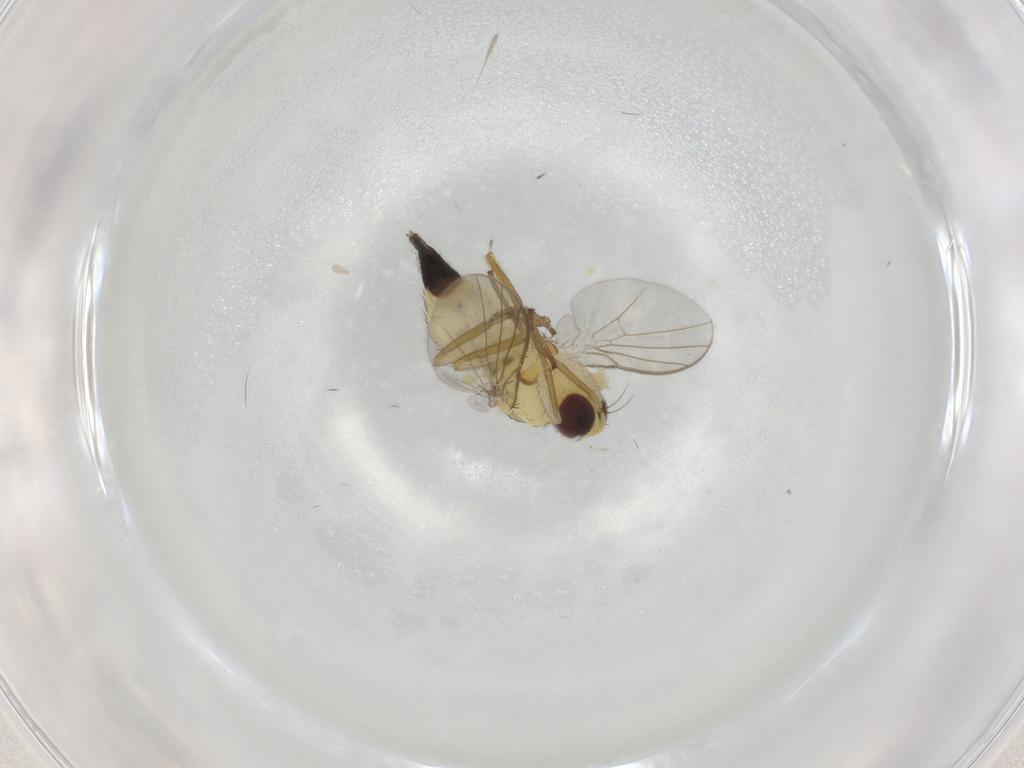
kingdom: Animalia
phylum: Arthropoda
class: Insecta
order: Diptera
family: Agromyzidae
